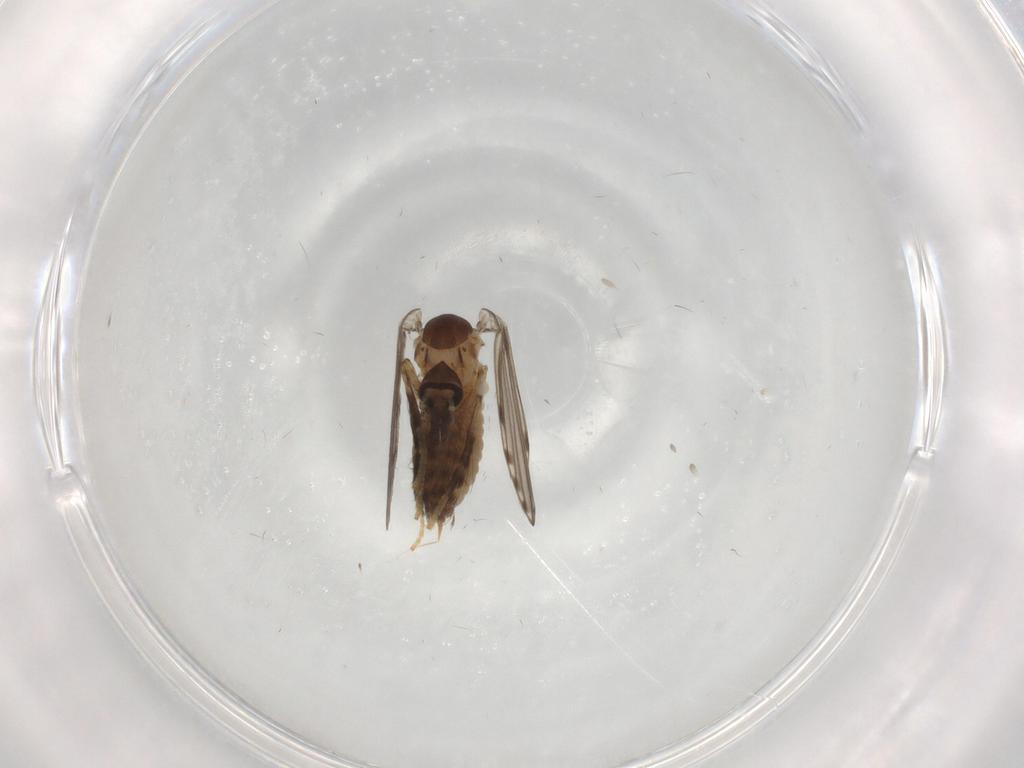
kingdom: Animalia
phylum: Arthropoda
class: Insecta
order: Diptera
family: Psychodidae
